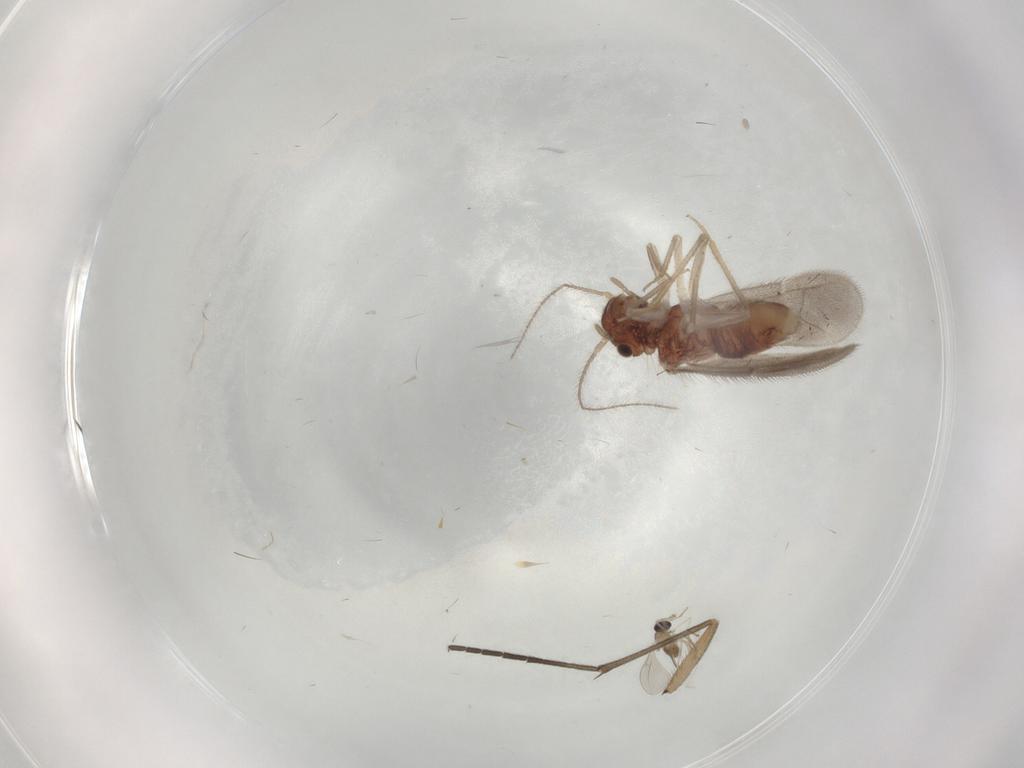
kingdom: Animalia
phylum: Arthropoda
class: Insecta
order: Psocodea
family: Archipsocidae
